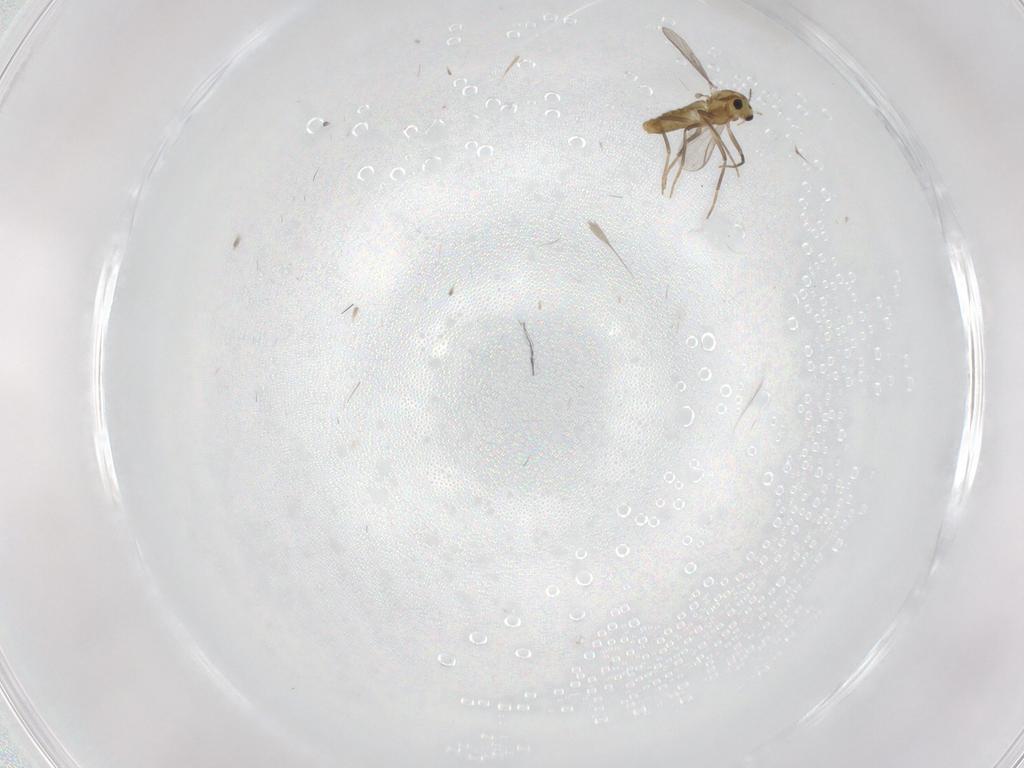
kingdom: Animalia
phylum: Arthropoda
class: Insecta
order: Diptera
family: Chironomidae
